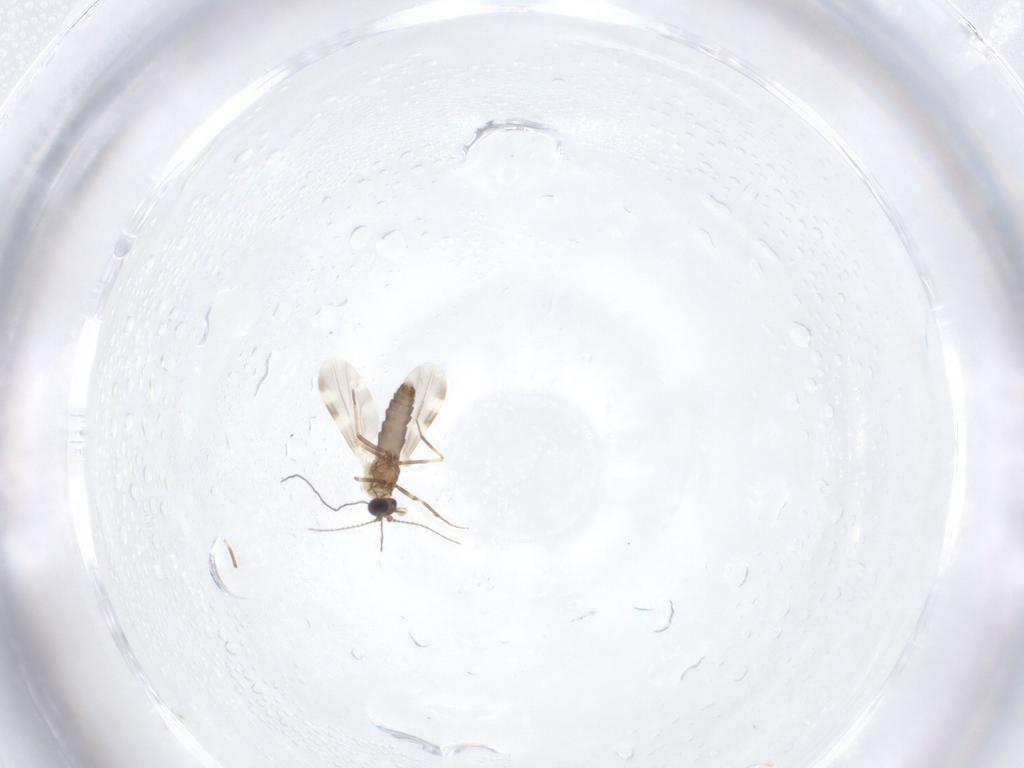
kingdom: Animalia
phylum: Arthropoda
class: Insecta
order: Diptera
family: Ceratopogonidae
